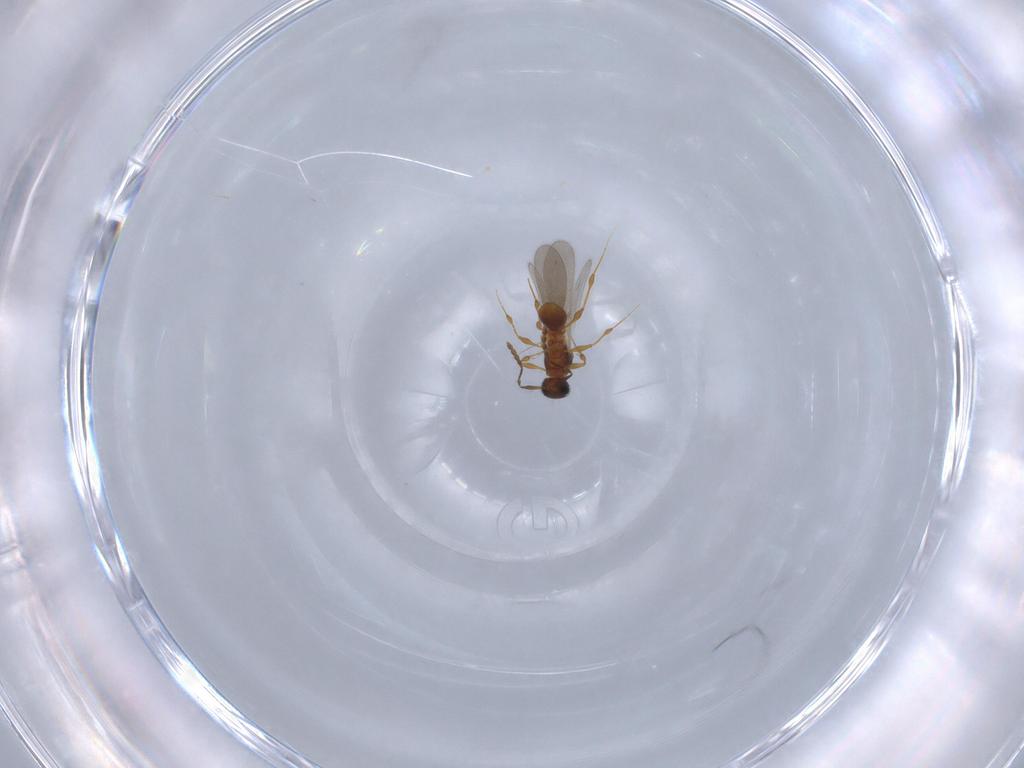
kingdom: Animalia
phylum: Arthropoda
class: Insecta
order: Hymenoptera
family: Platygastridae
